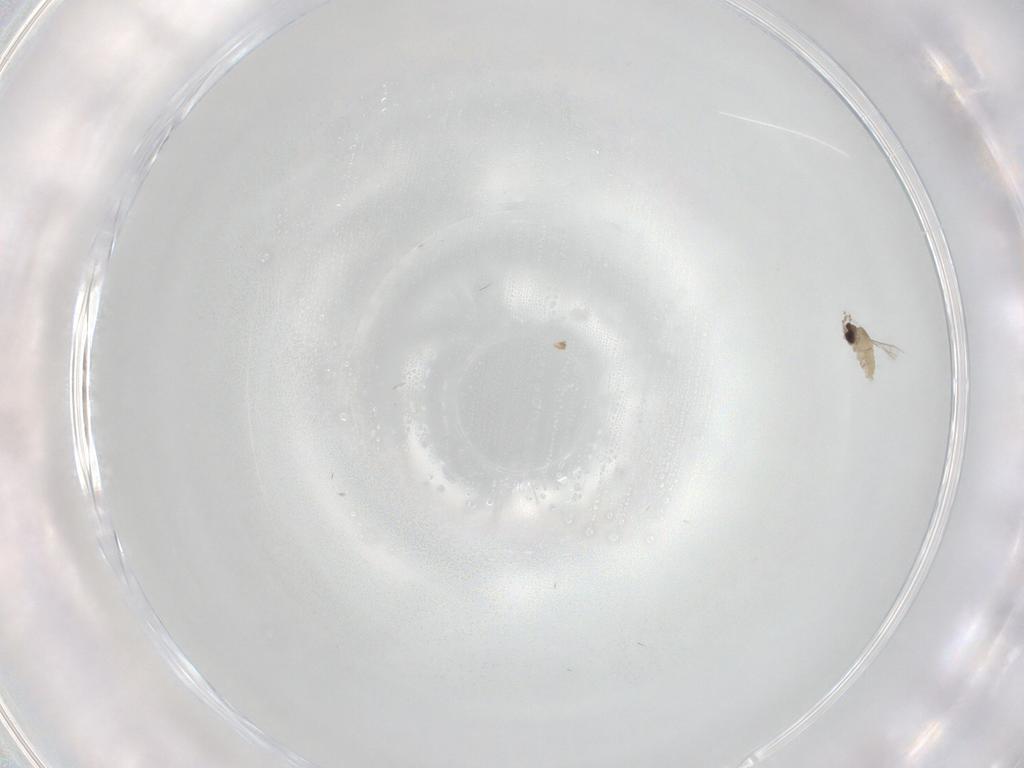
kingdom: Animalia
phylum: Arthropoda
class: Insecta
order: Diptera
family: Cecidomyiidae
